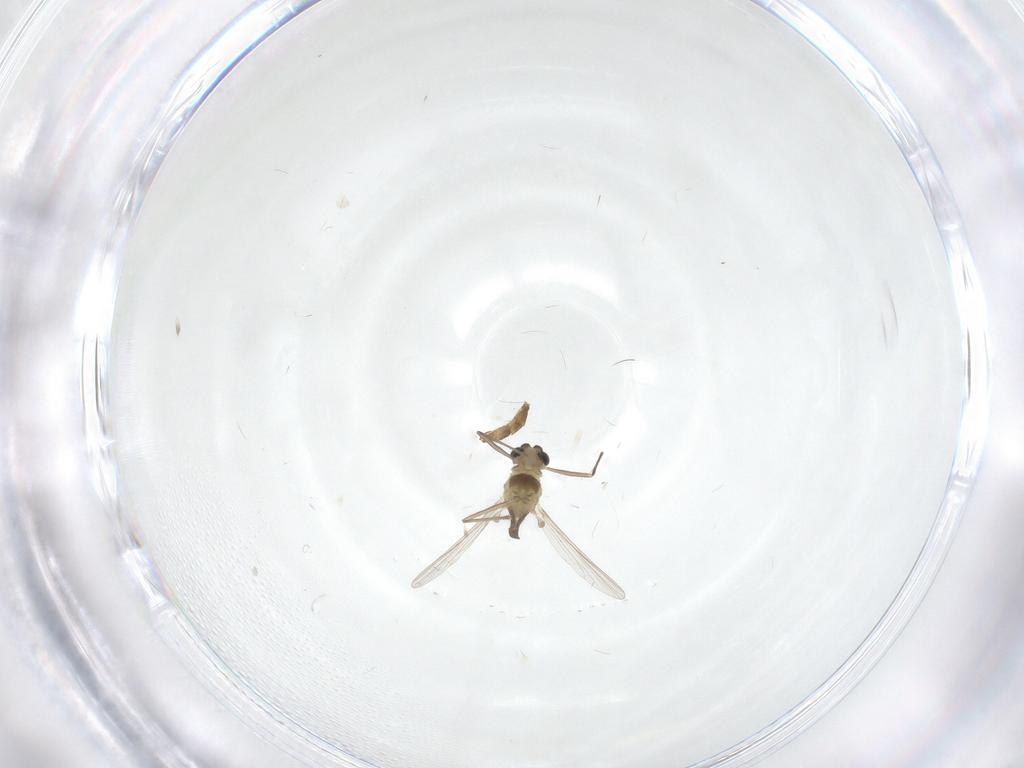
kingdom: Animalia
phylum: Arthropoda
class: Insecta
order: Diptera
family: Chironomidae
